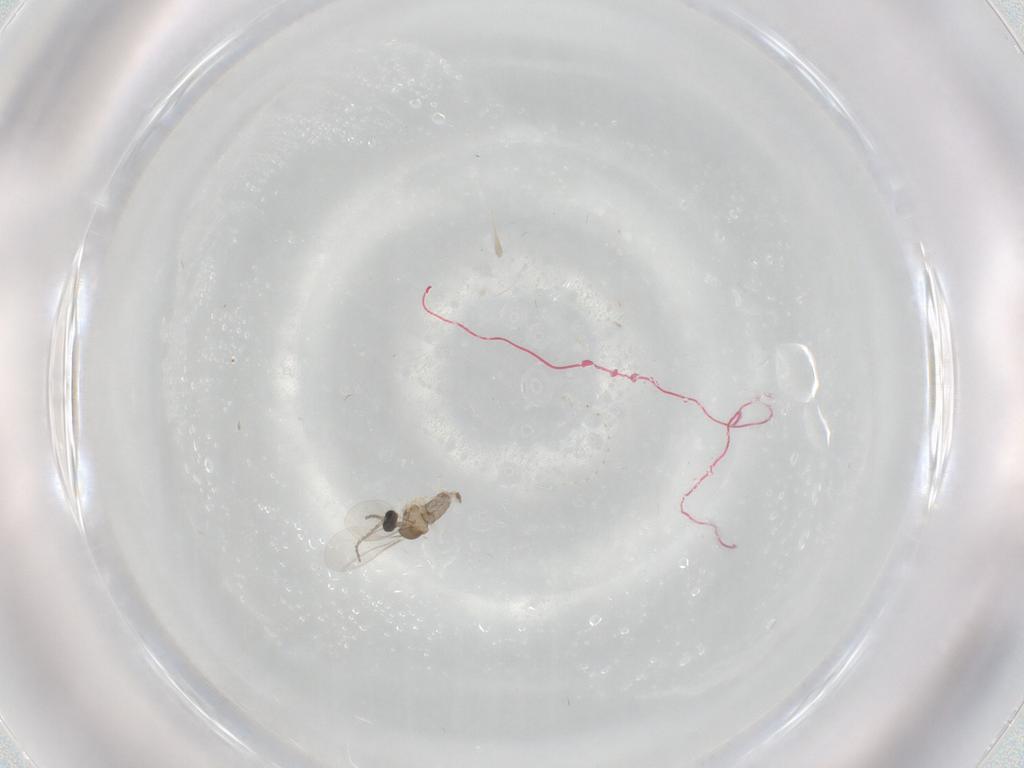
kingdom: Animalia
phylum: Arthropoda
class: Insecta
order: Diptera
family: Cecidomyiidae
